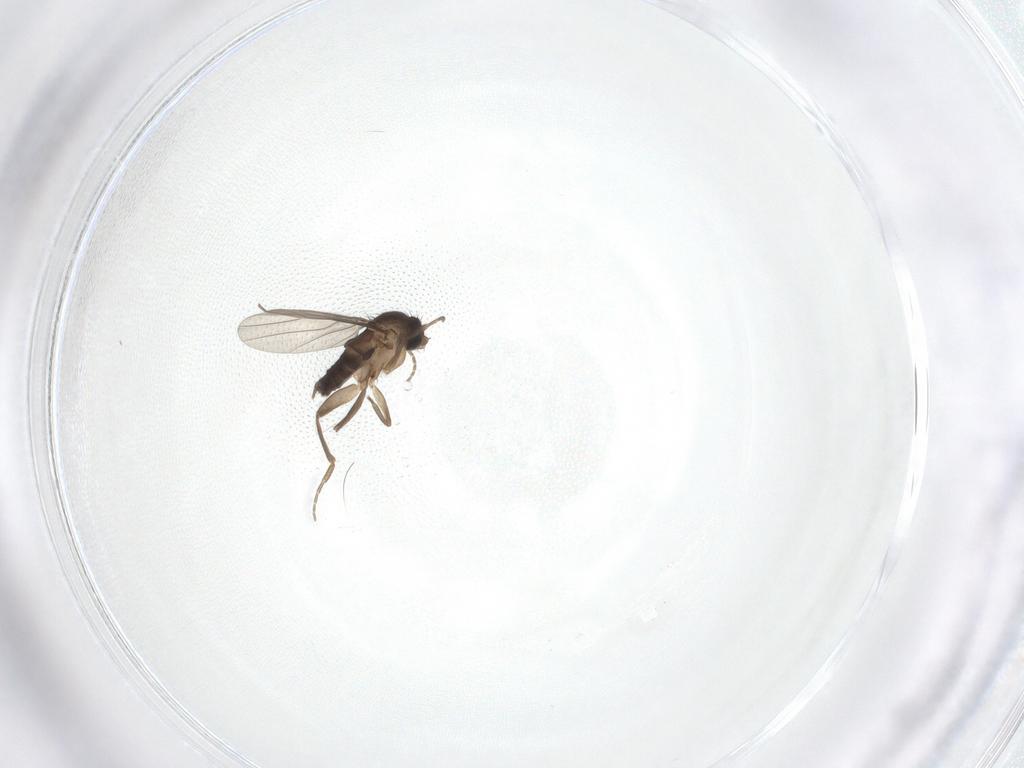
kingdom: Animalia
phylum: Arthropoda
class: Insecta
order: Diptera
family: Phoridae
